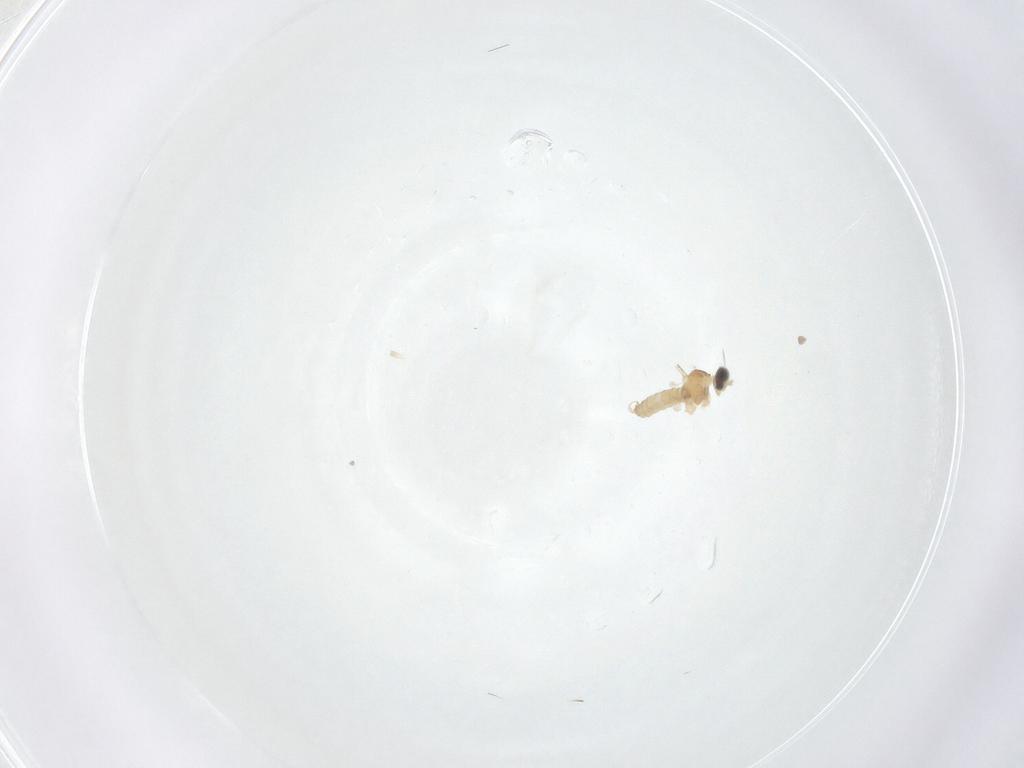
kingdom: Animalia
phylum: Arthropoda
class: Insecta
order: Diptera
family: Cecidomyiidae
